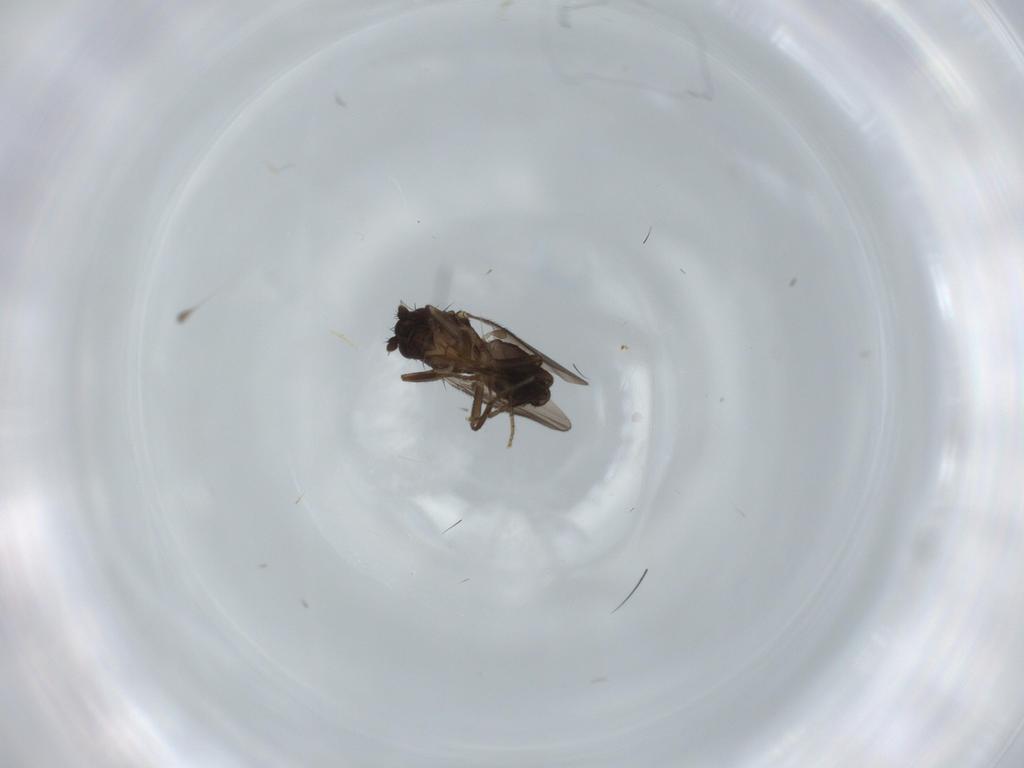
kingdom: Animalia
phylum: Arthropoda
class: Insecta
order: Diptera
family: Sphaeroceridae
